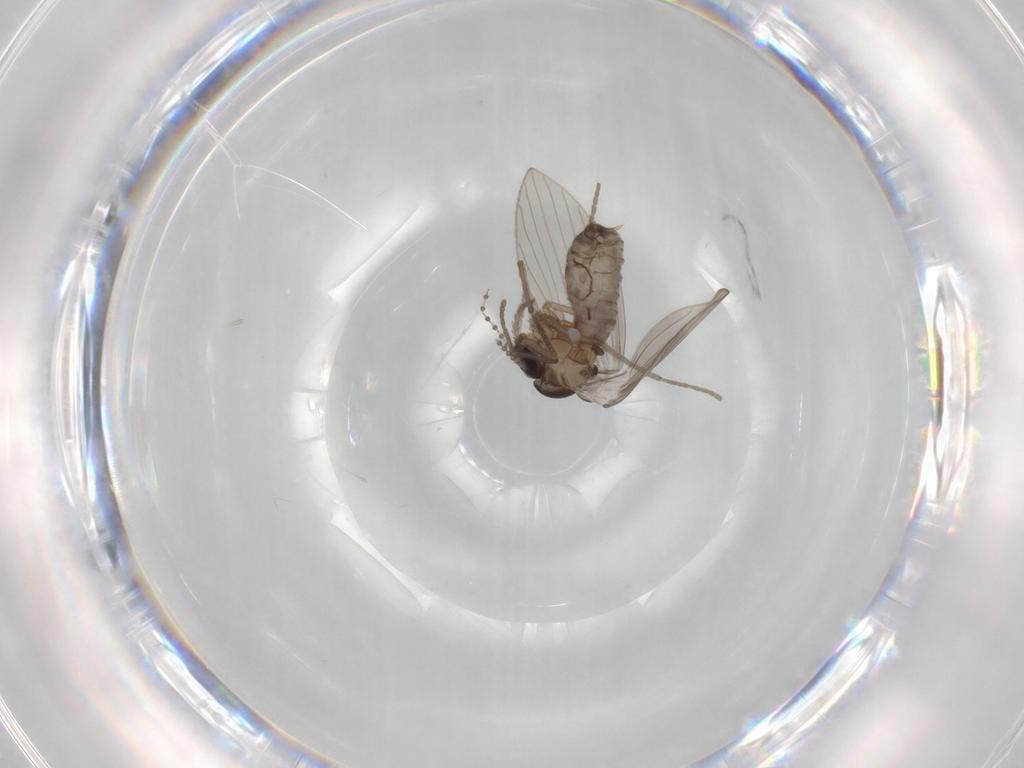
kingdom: Animalia
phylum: Arthropoda
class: Insecta
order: Diptera
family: Psychodidae
